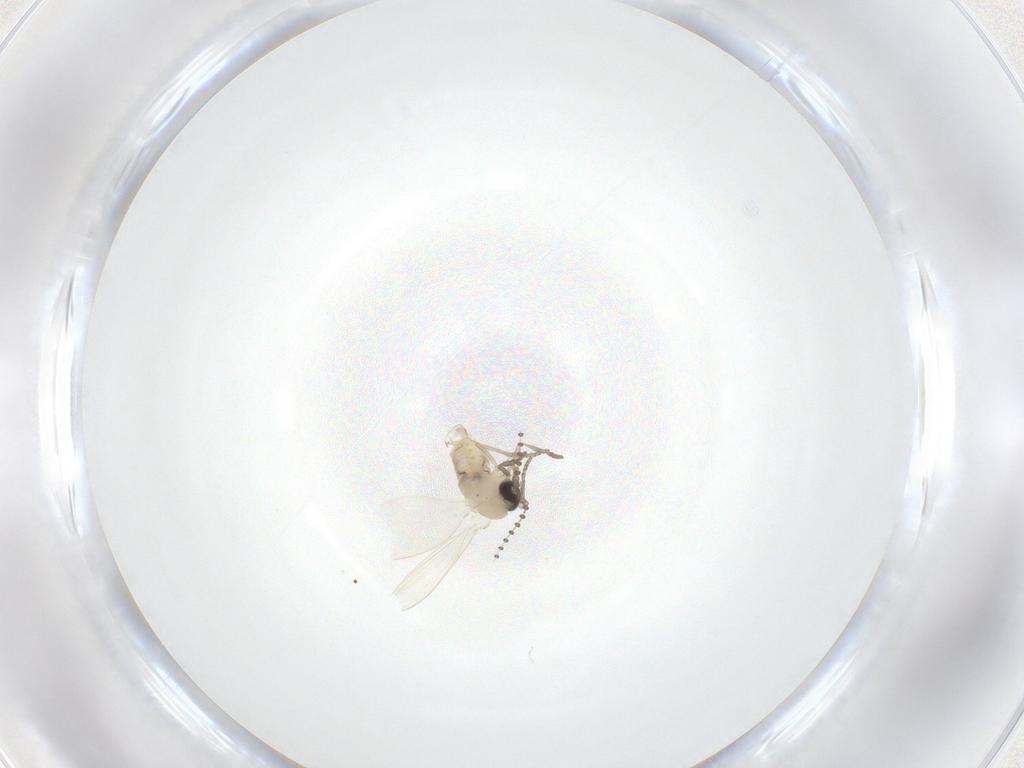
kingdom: Animalia
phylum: Arthropoda
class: Insecta
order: Diptera
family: Psychodidae
